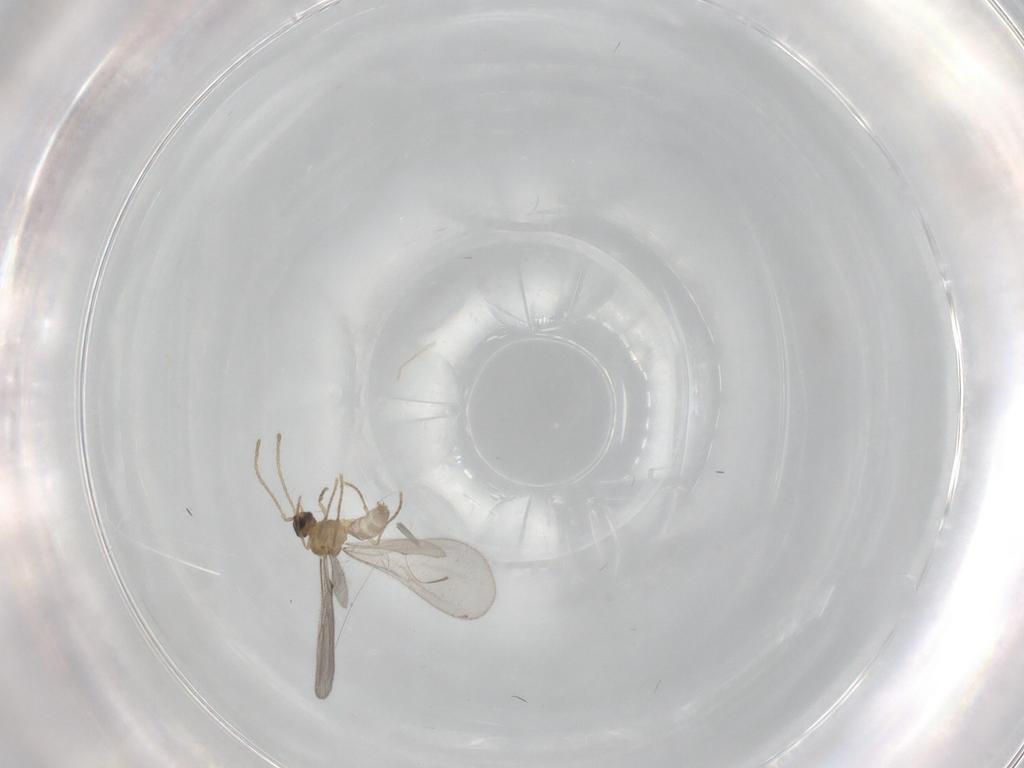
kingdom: Animalia
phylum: Arthropoda
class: Insecta
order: Hymenoptera
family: Formicidae
